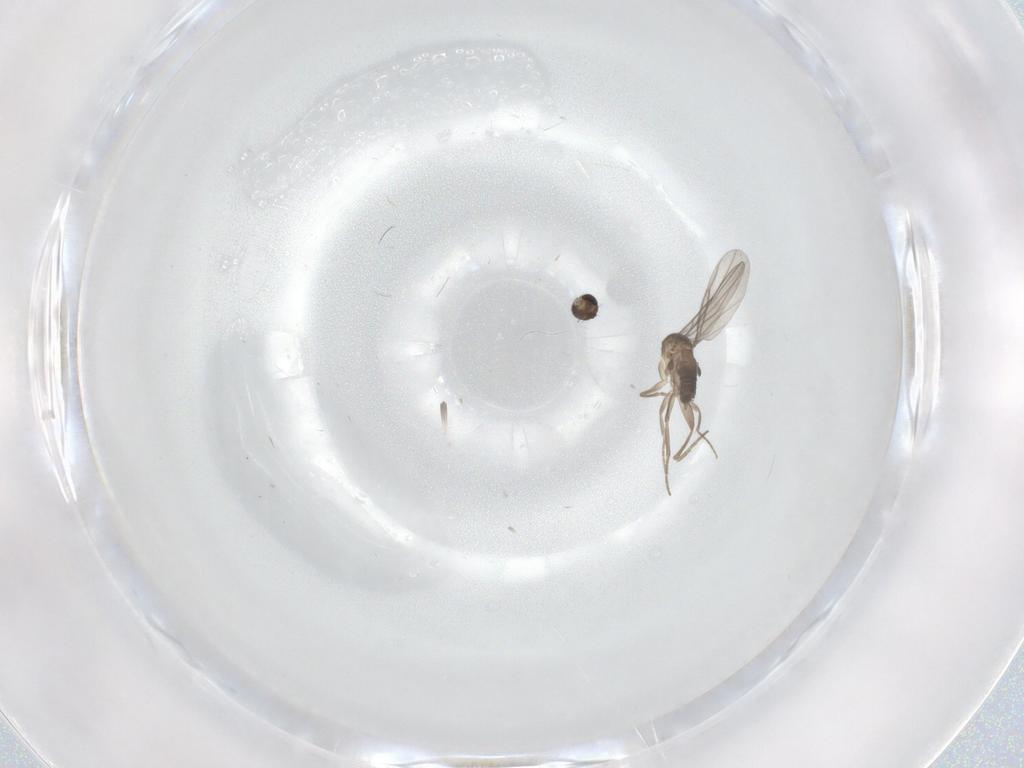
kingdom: Animalia
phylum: Arthropoda
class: Insecta
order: Diptera
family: Phoridae
